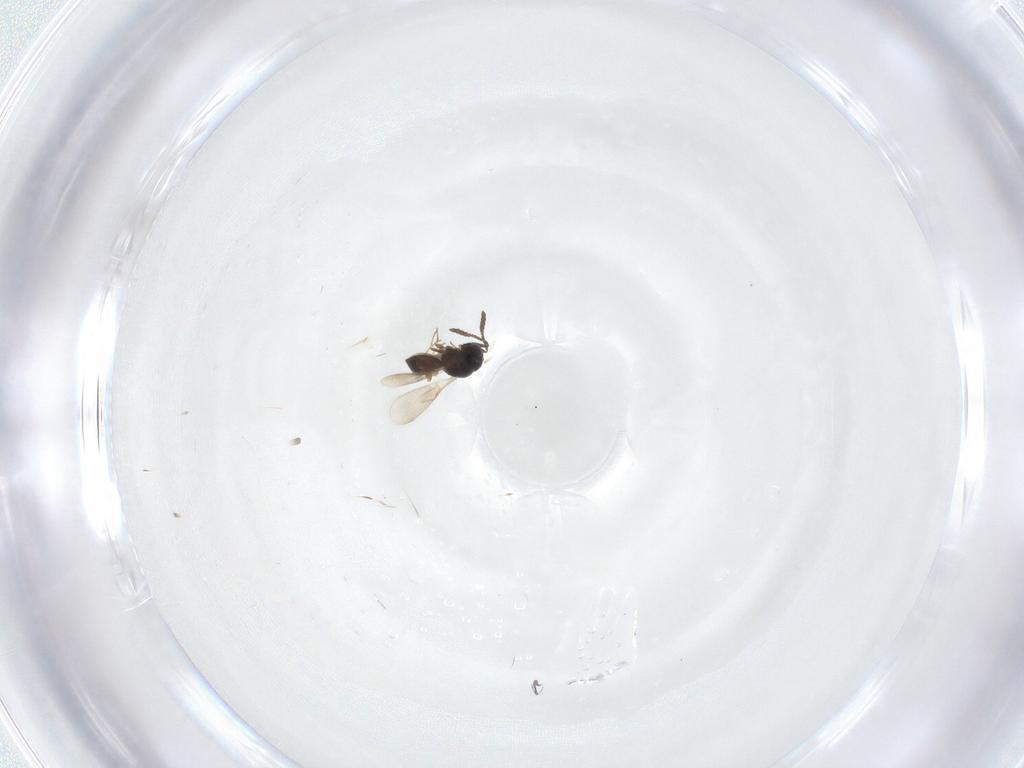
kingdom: Animalia
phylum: Arthropoda
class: Insecta
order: Hymenoptera
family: Scelionidae
